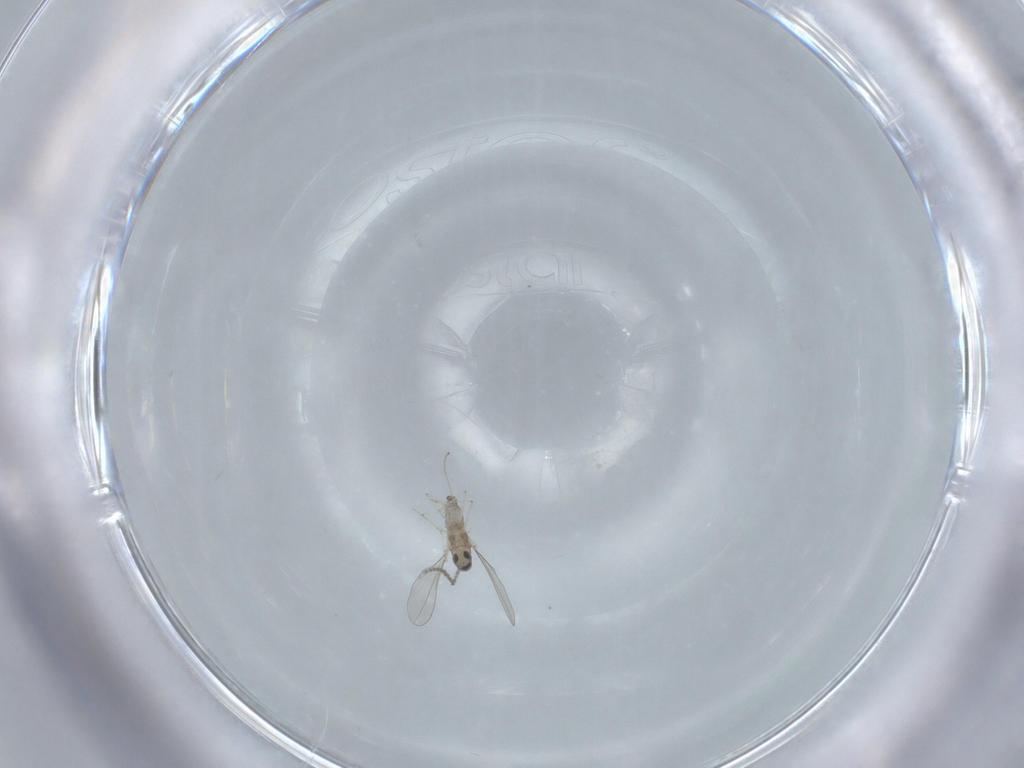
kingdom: Animalia
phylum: Arthropoda
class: Insecta
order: Diptera
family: Cecidomyiidae
